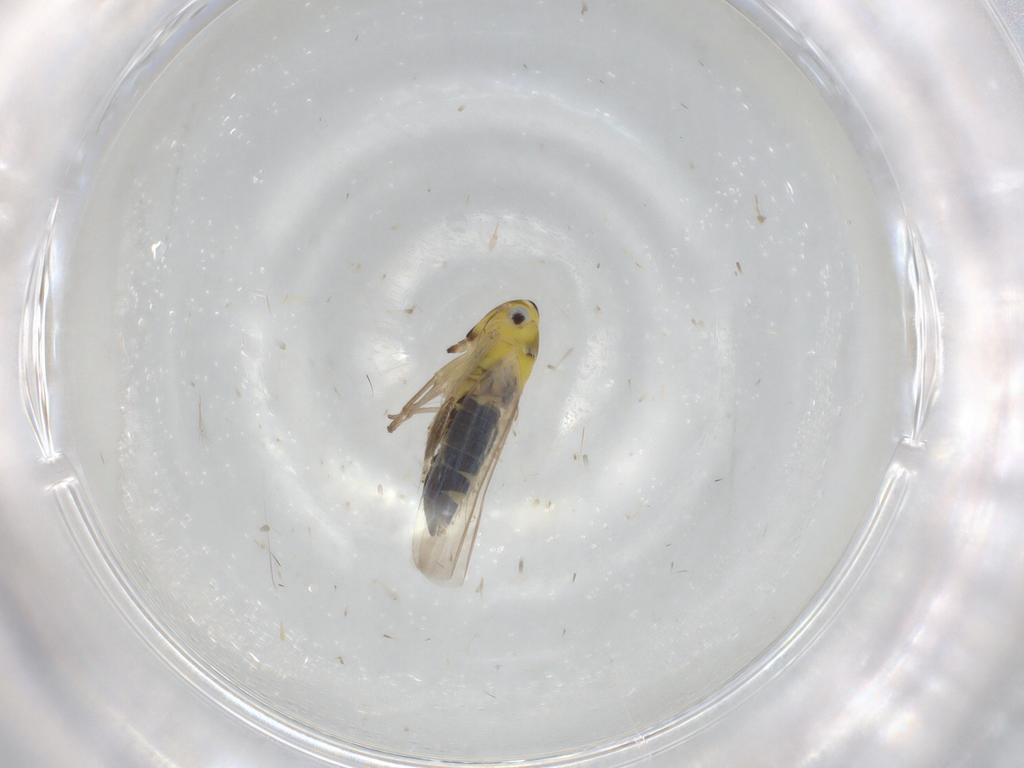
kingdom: Animalia
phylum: Arthropoda
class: Insecta
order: Hemiptera
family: Cicadellidae
